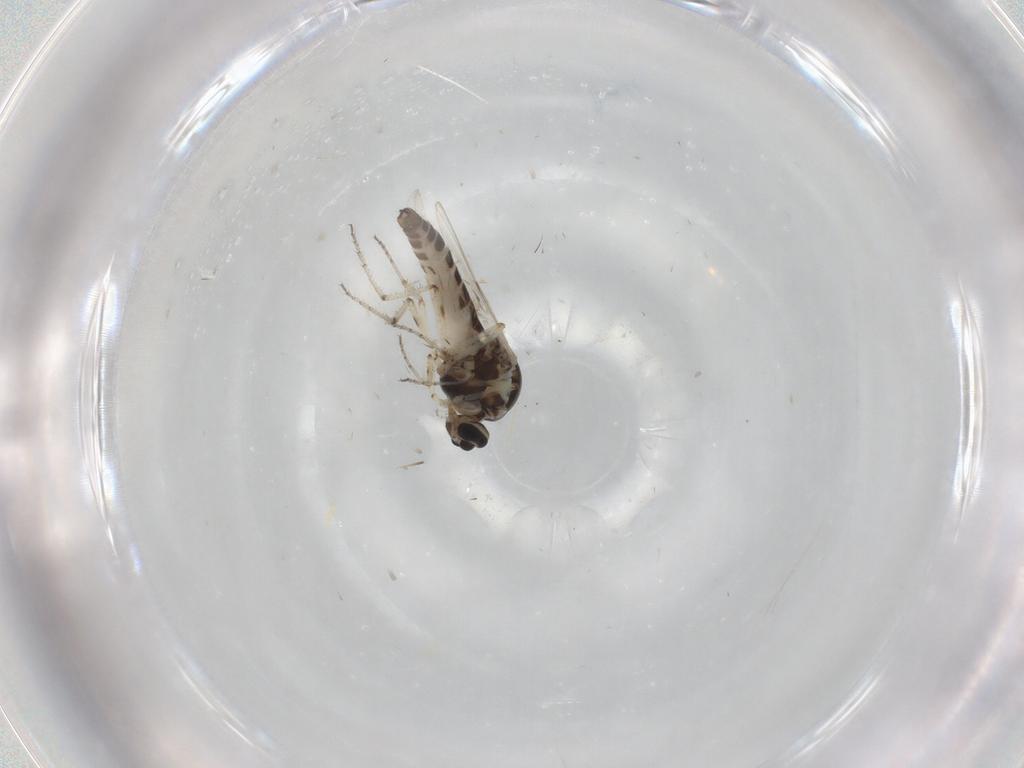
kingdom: Animalia
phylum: Arthropoda
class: Insecta
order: Diptera
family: Ceratopogonidae
